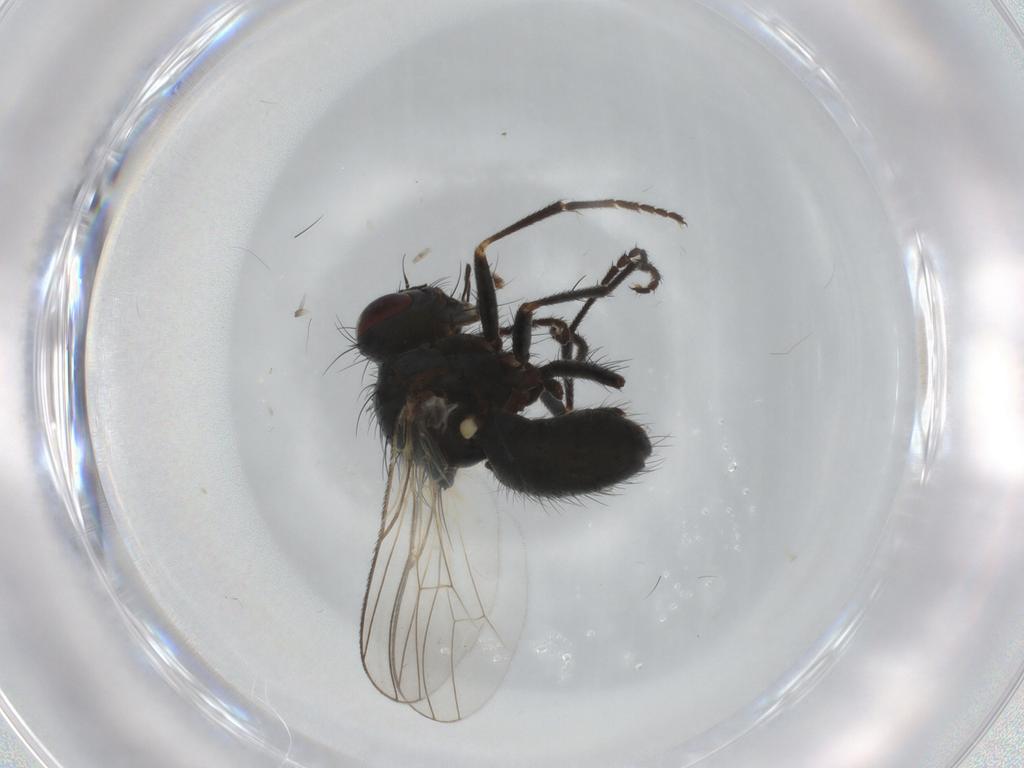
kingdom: Animalia
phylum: Arthropoda
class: Insecta
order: Diptera
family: Muscidae
